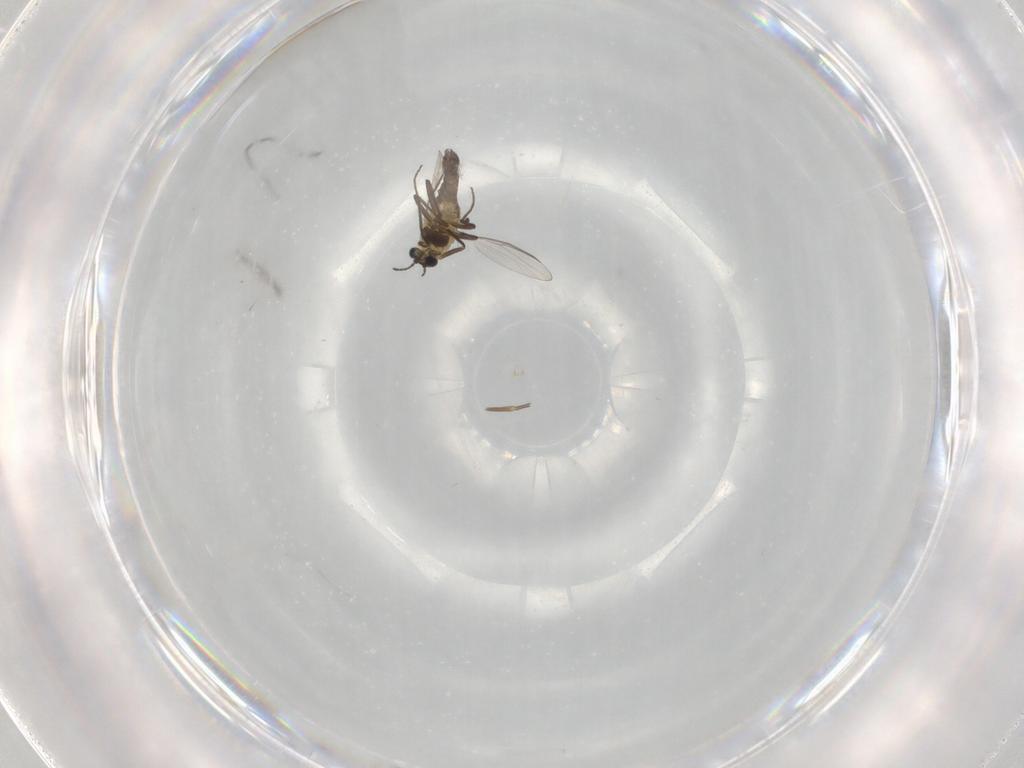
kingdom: Animalia
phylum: Arthropoda
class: Insecta
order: Diptera
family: Chironomidae
